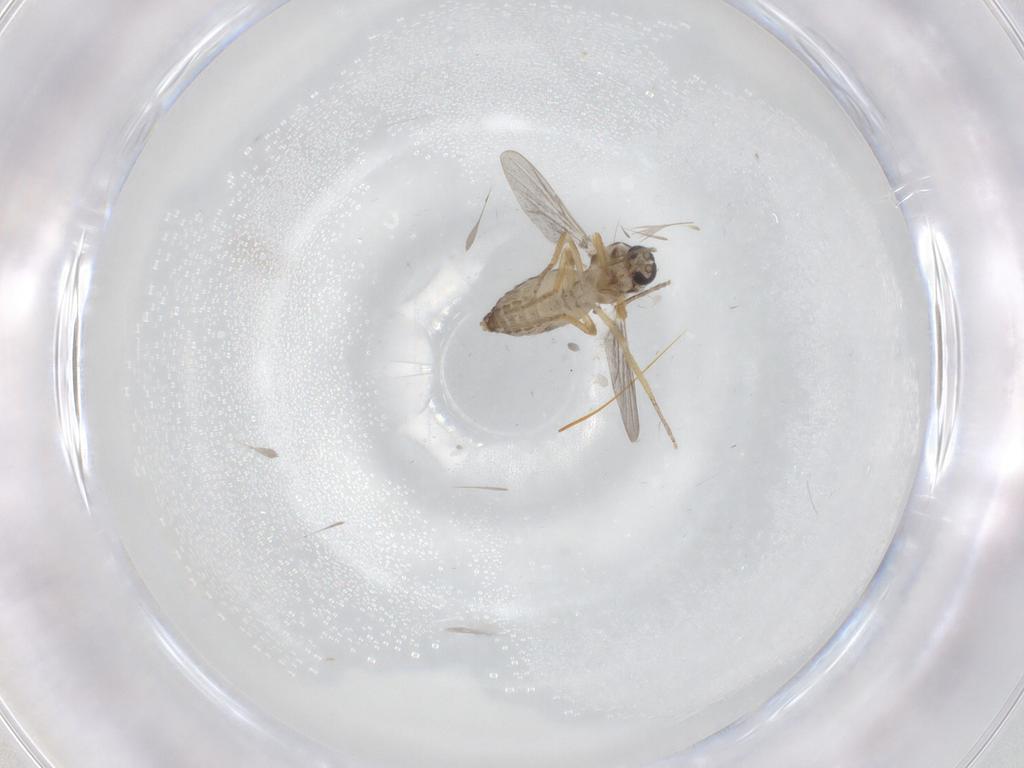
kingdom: Animalia
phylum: Arthropoda
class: Insecta
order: Diptera
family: Ceratopogonidae
